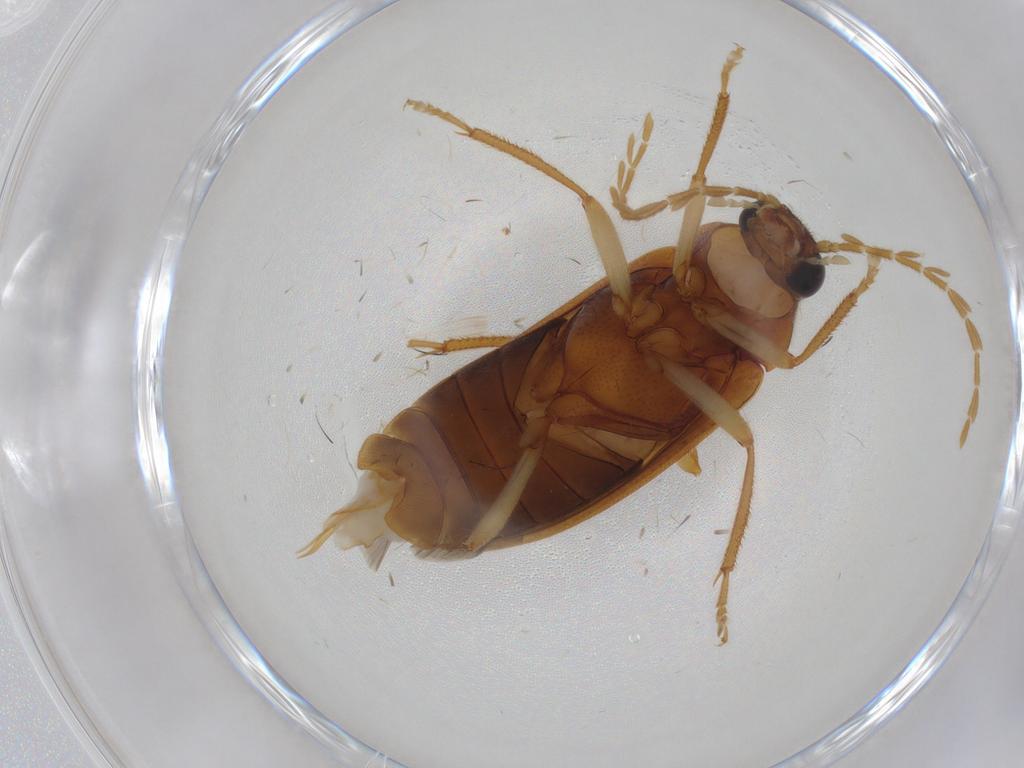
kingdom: Animalia
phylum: Arthropoda
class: Insecta
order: Coleoptera
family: Ptilodactylidae
